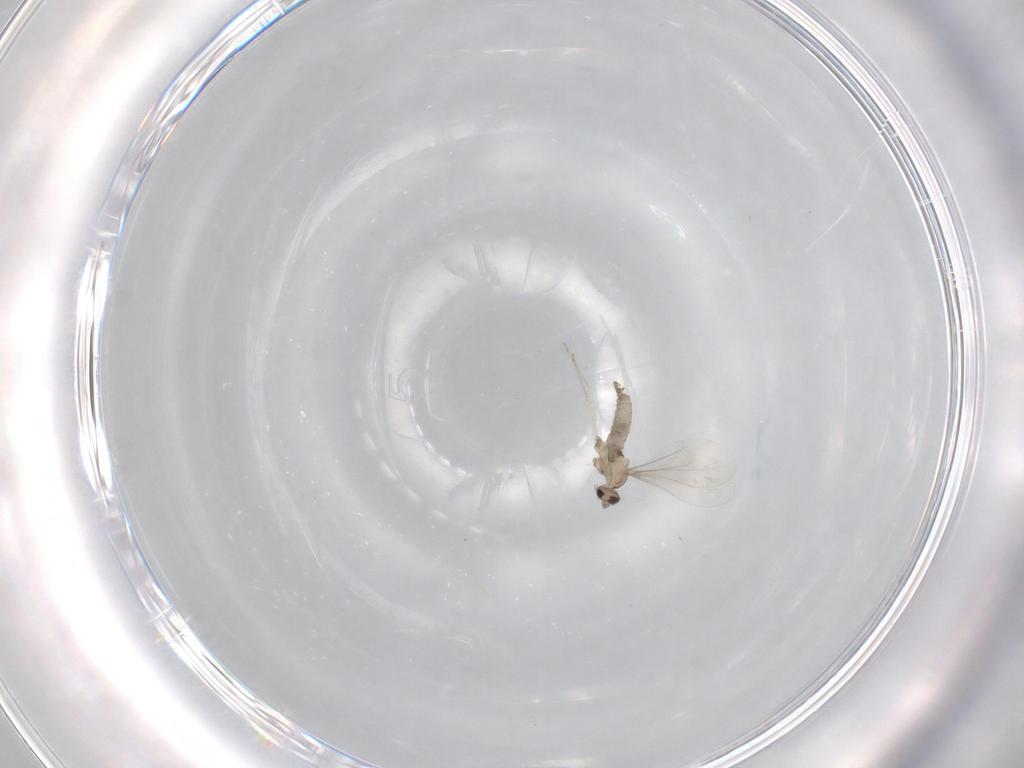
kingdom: Animalia
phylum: Arthropoda
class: Insecta
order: Diptera
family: Cecidomyiidae
